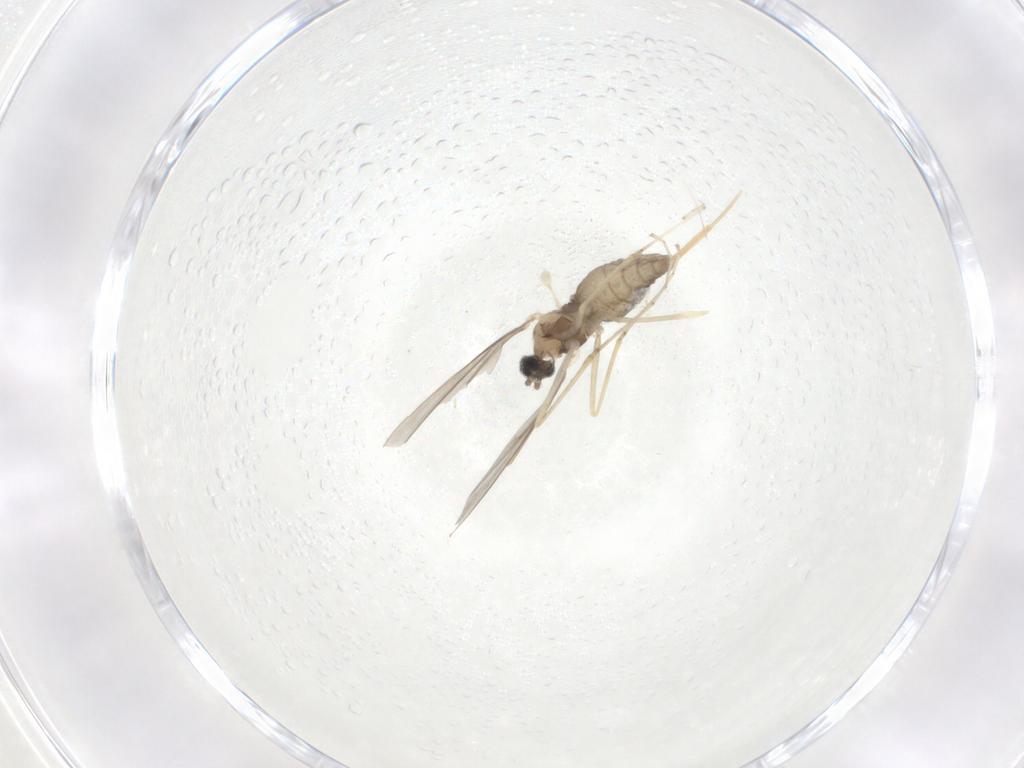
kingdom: Animalia
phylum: Arthropoda
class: Insecta
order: Diptera
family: Cecidomyiidae
